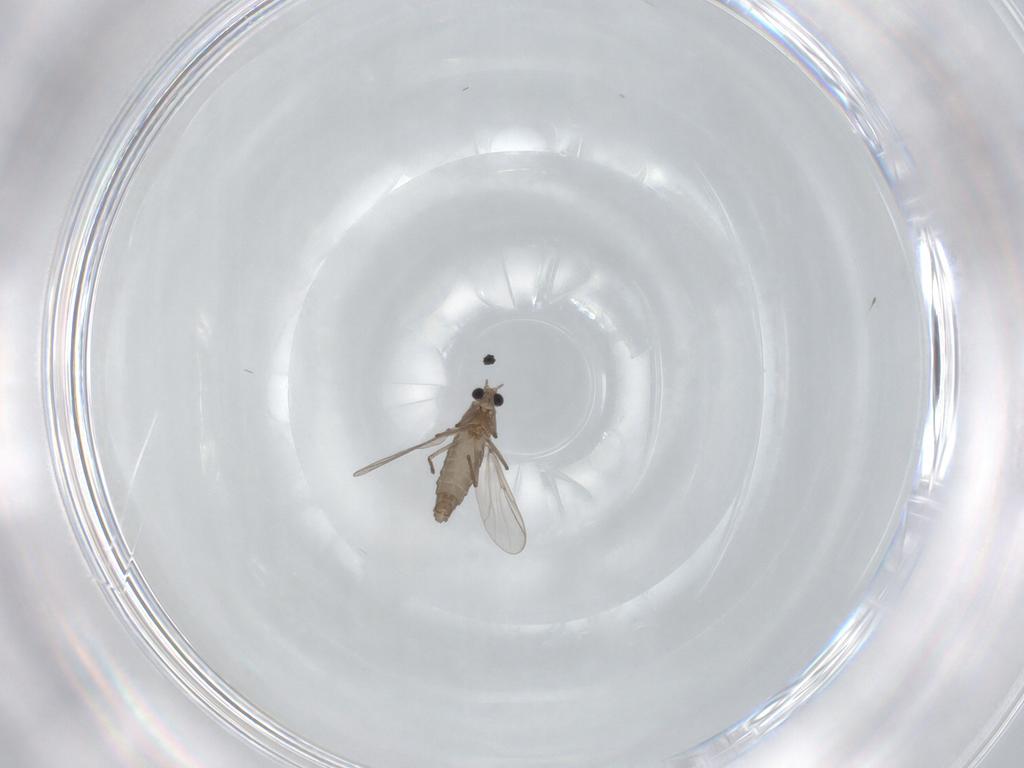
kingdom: Animalia
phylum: Arthropoda
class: Insecta
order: Diptera
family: Chironomidae
